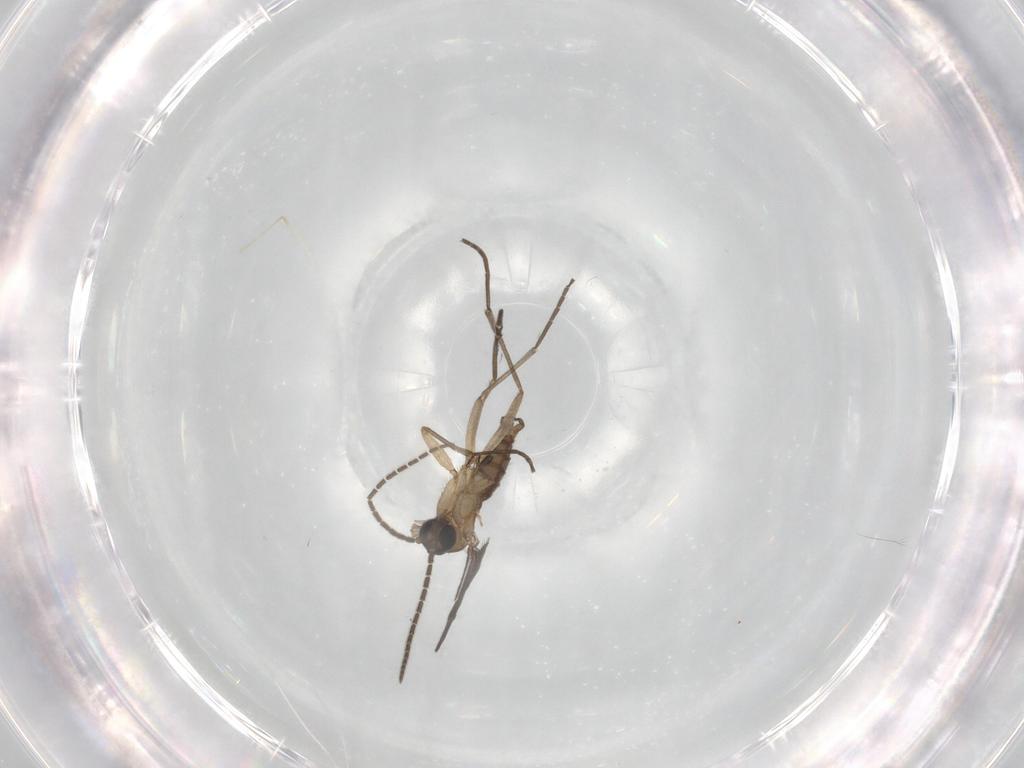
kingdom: Animalia
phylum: Arthropoda
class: Insecta
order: Diptera
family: Sciaridae
